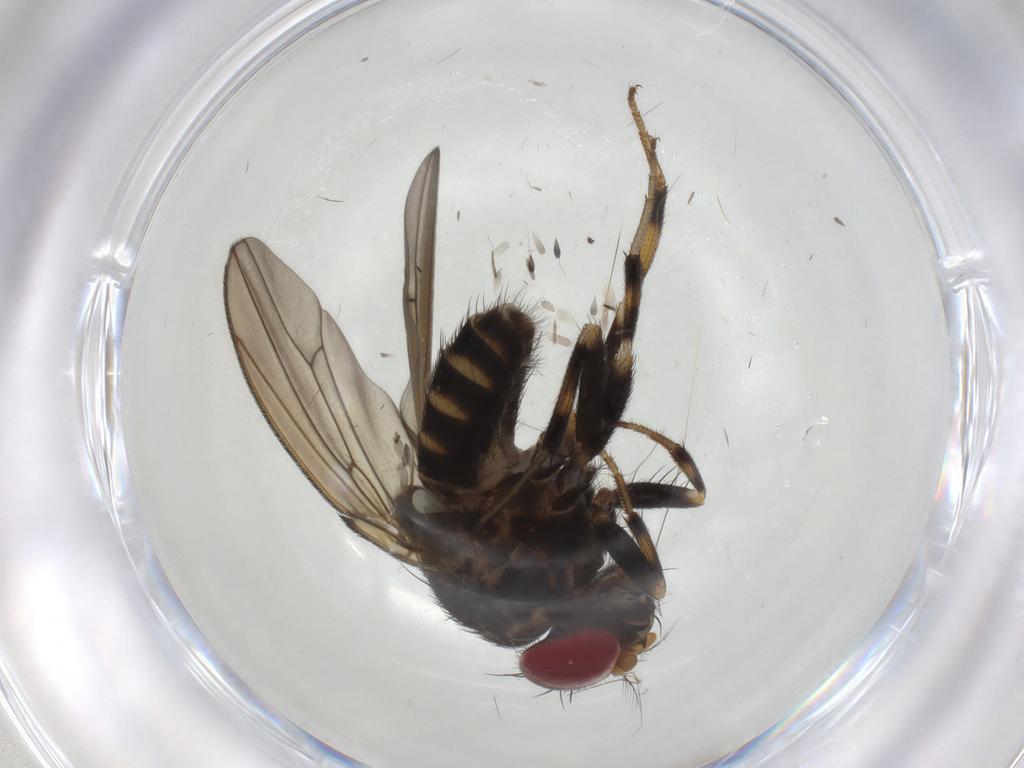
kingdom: Animalia
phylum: Arthropoda
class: Insecta
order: Diptera
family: Drosophilidae
